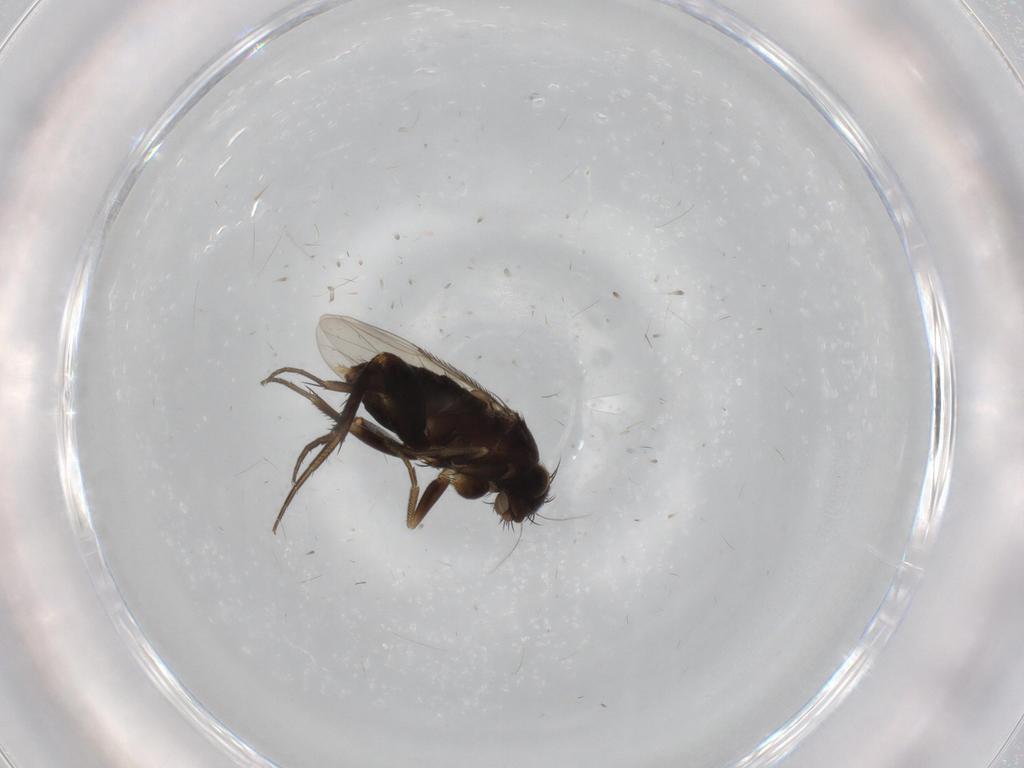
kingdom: Animalia
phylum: Arthropoda
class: Insecta
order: Diptera
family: Phoridae
